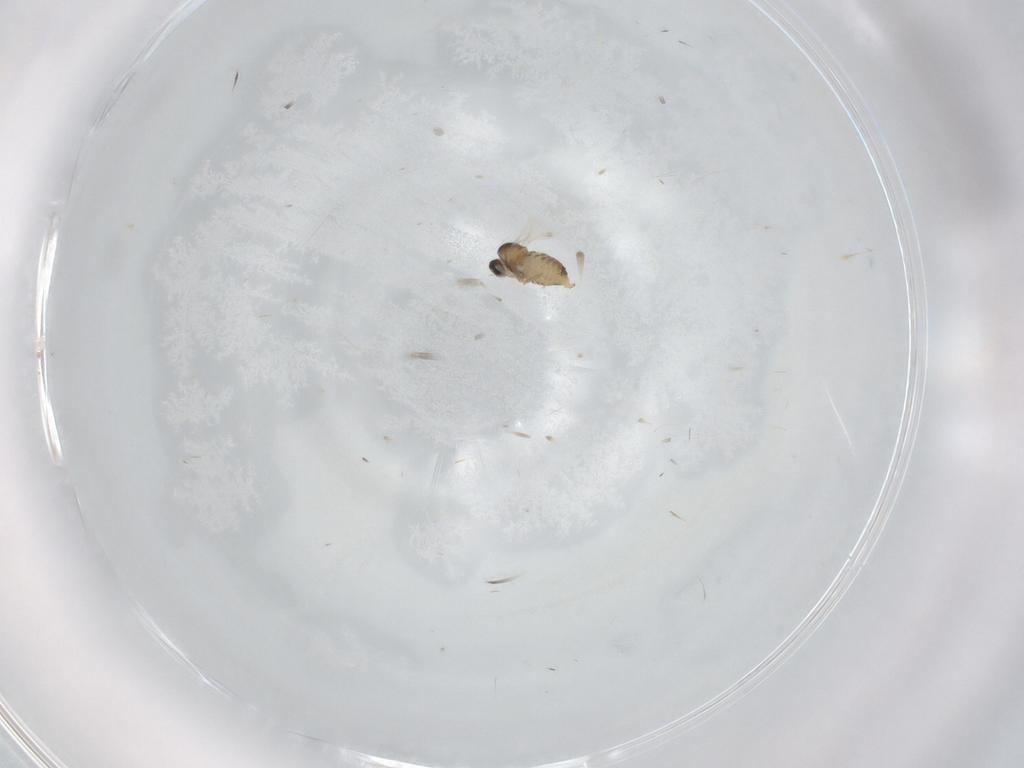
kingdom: Animalia
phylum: Arthropoda
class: Insecta
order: Diptera
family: Cecidomyiidae
